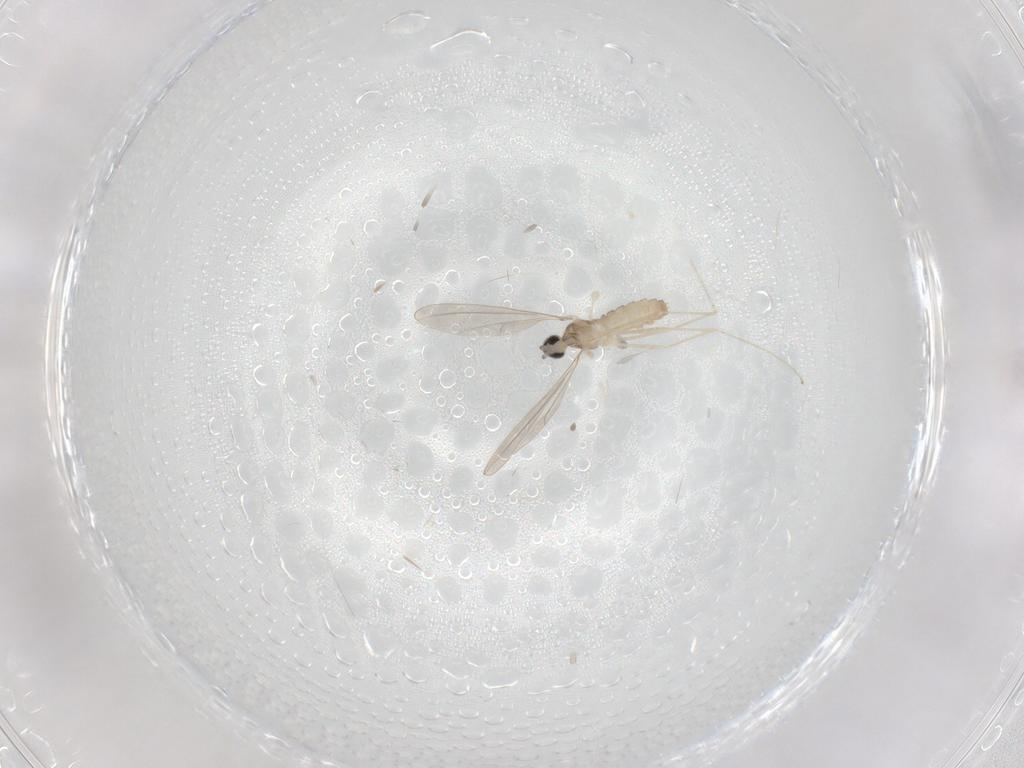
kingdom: Animalia
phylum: Arthropoda
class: Insecta
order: Diptera
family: Cecidomyiidae
